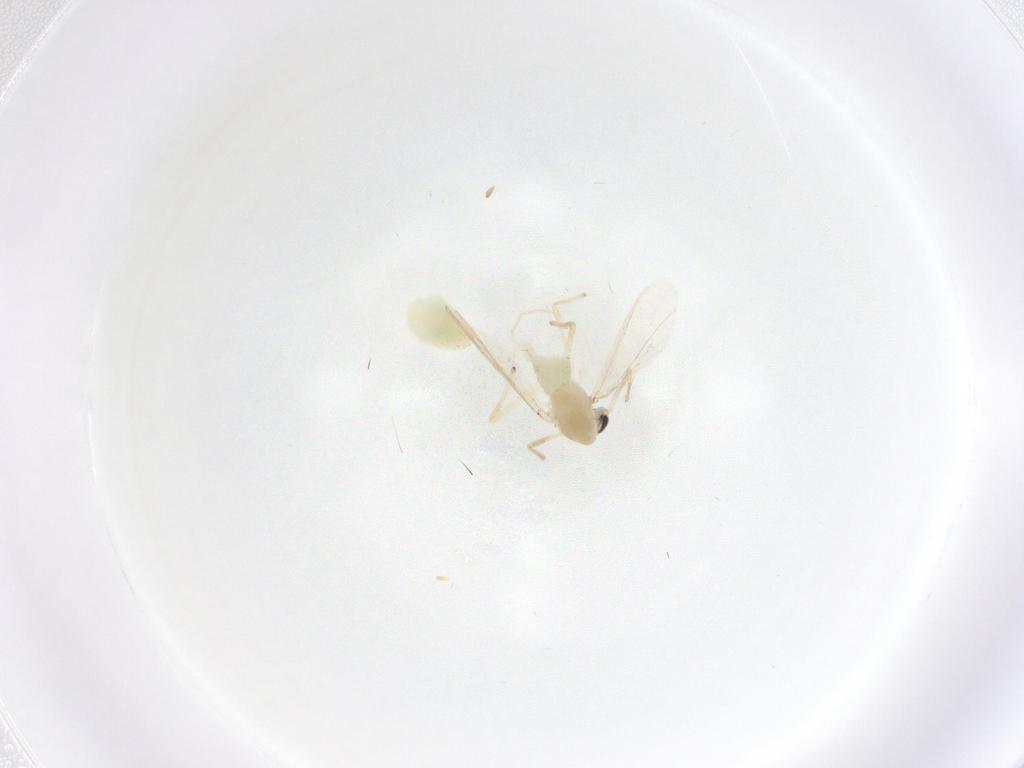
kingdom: Animalia
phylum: Arthropoda
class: Insecta
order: Diptera
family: Chironomidae
